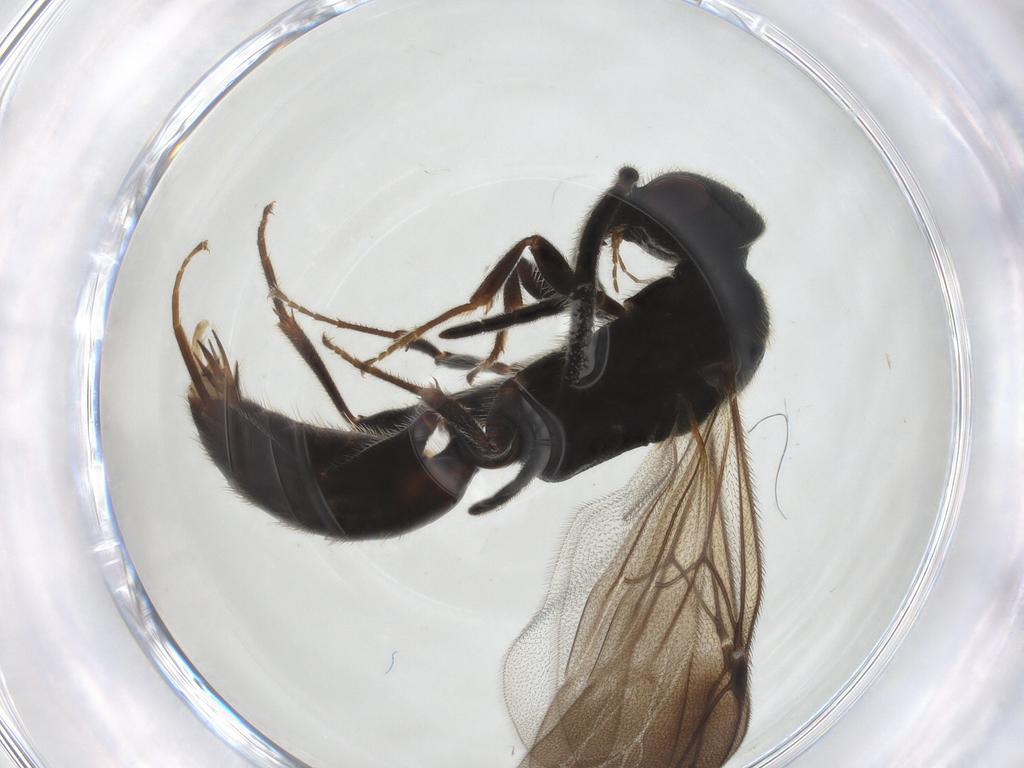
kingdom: Animalia
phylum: Arthropoda
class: Insecta
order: Hymenoptera
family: Bethylidae
